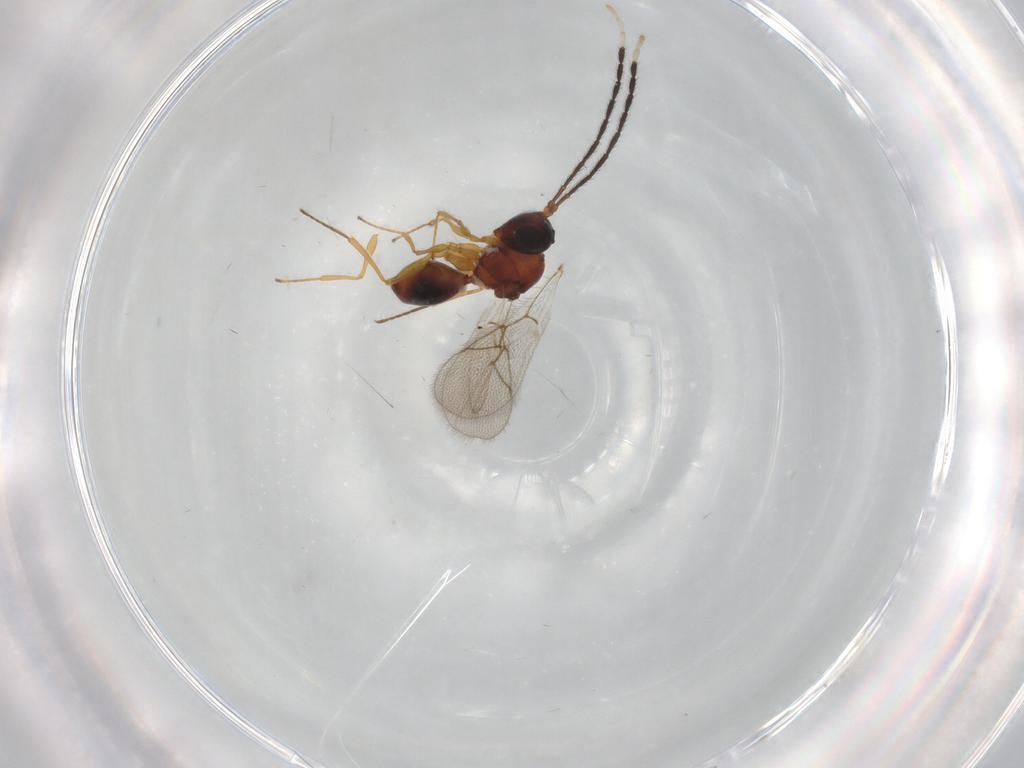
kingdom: Animalia
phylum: Arthropoda
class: Insecta
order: Hymenoptera
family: Figitidae
